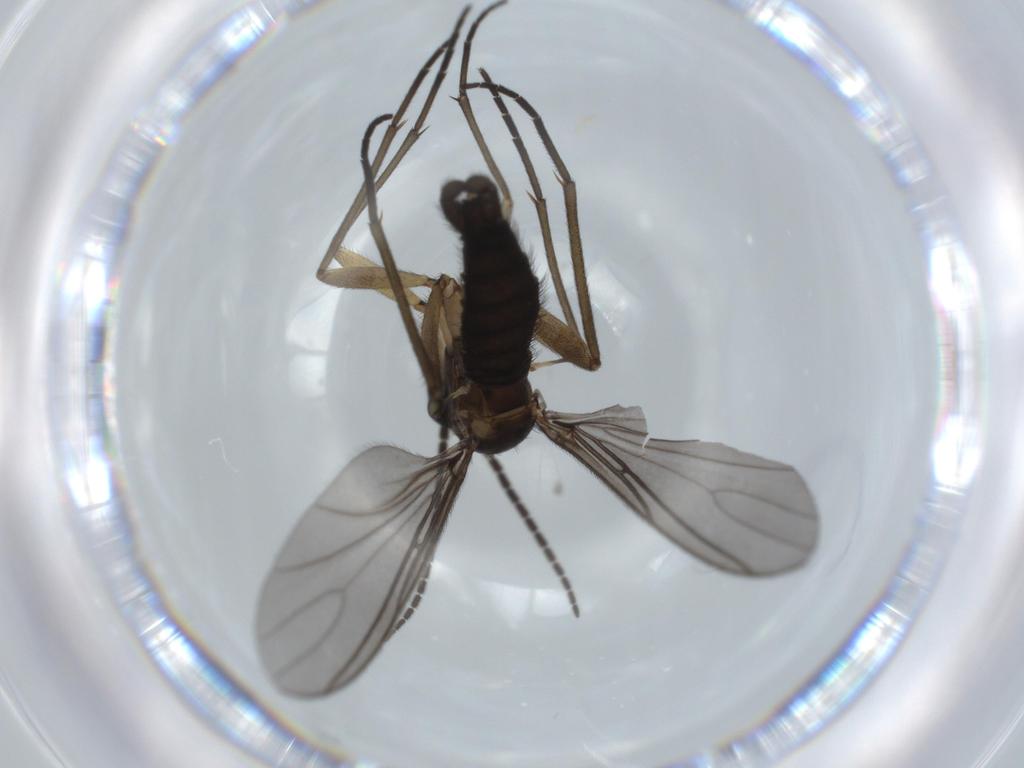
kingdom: Animalia
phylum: Arthropoda
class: Insecta
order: Diptera
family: Sciaridae
